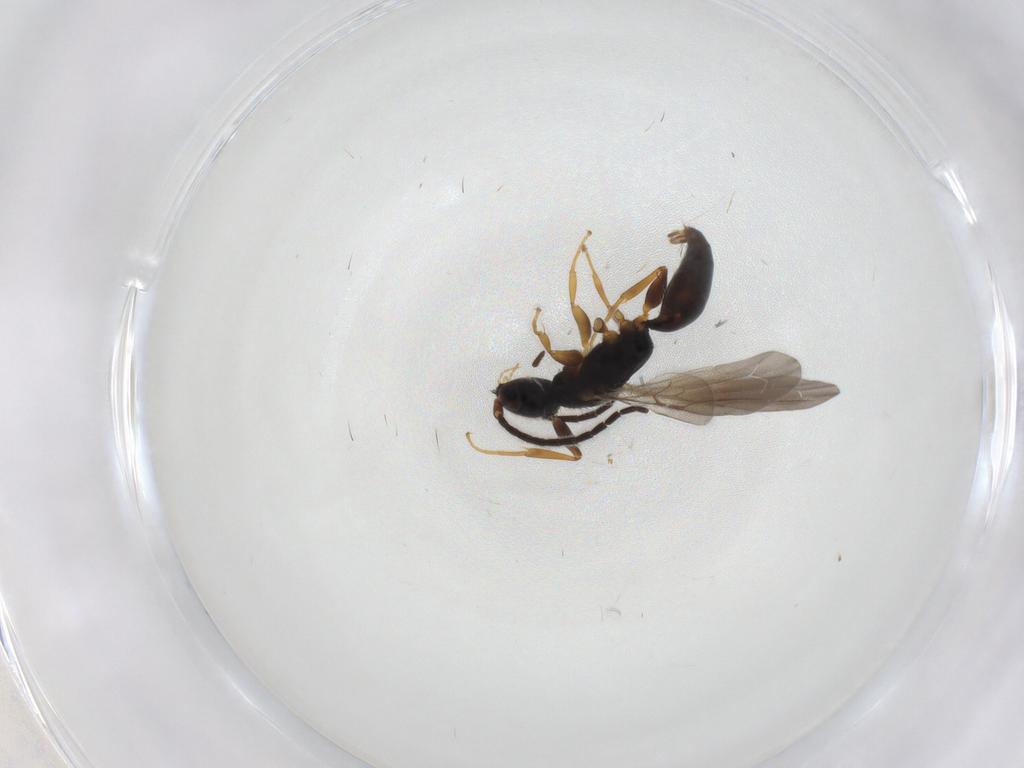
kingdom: Animalia
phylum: Arthropoda
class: Insecta
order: Hymenoptera
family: Bethylidae
